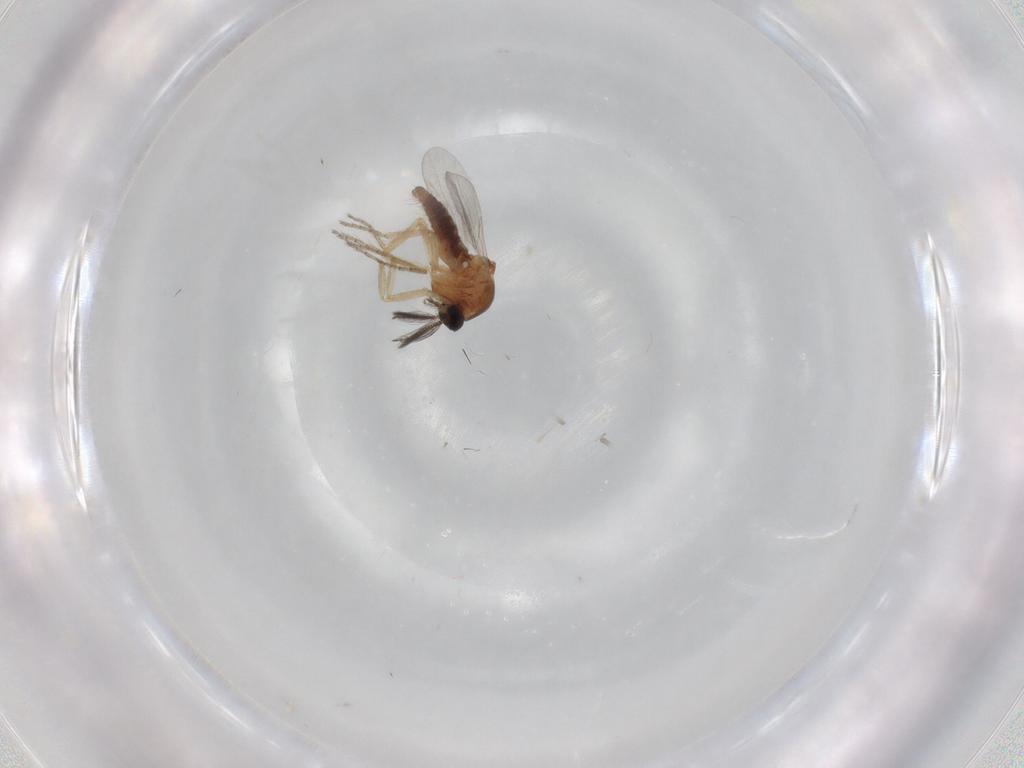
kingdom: Animalia
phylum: Arthropoda
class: Insecta
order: Diptera
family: Ceratopogonidae
